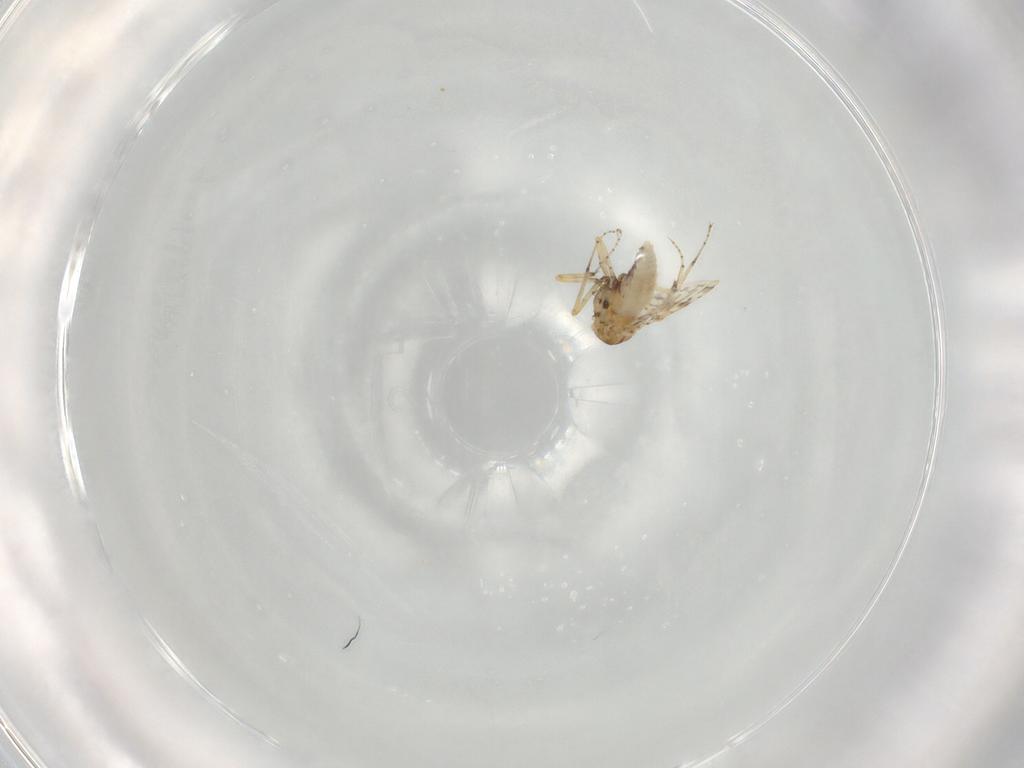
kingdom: Animalia
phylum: Arthropoda
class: Insecta
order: Diptera
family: Ceratopogonidae
